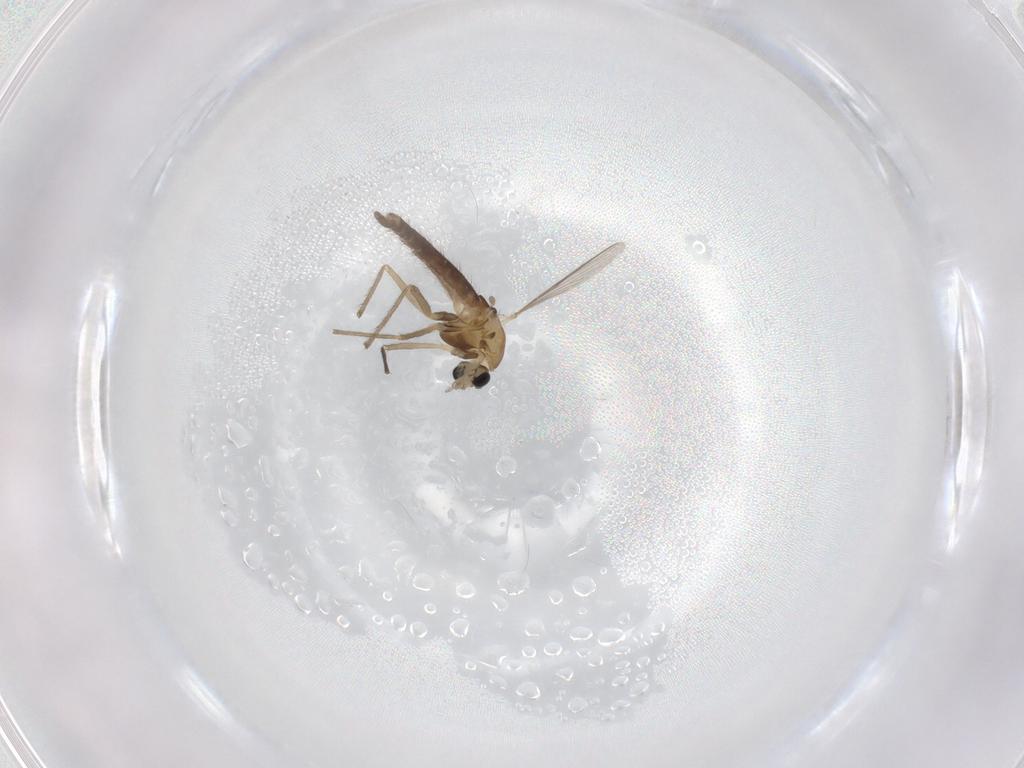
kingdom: Animalia
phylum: Arthropoda
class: Insecta
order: Diptera
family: Chironomidae
